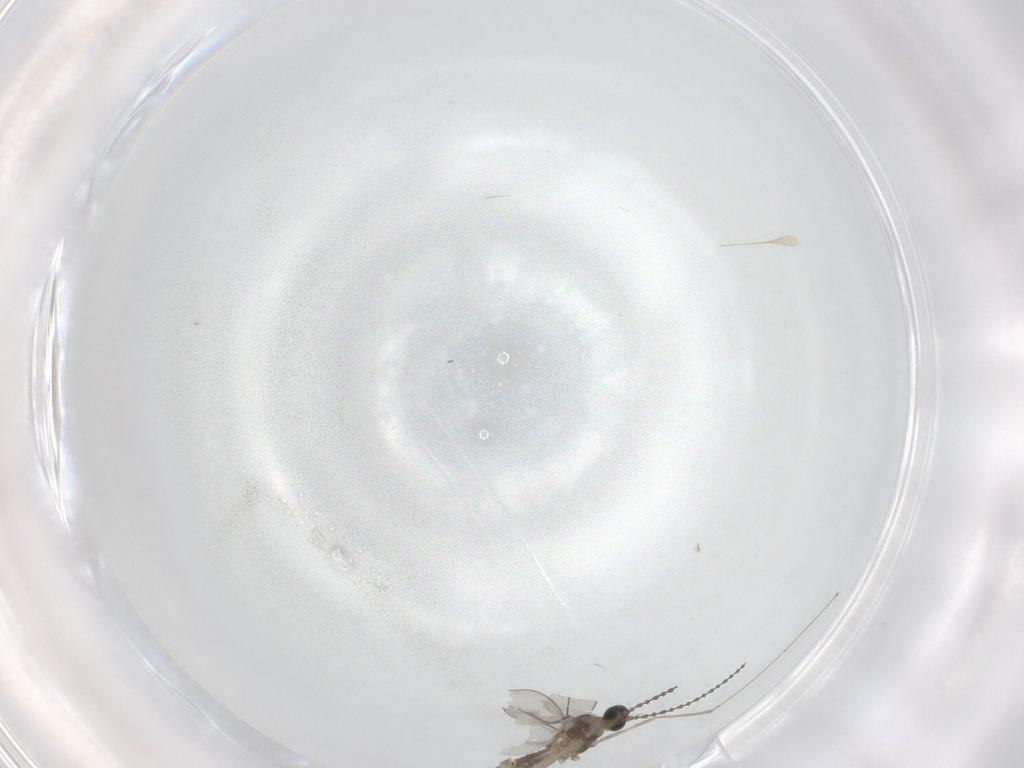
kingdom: Animalia
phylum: Arthropoda
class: Insecta
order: Diptera
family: Cecidomyiidae
